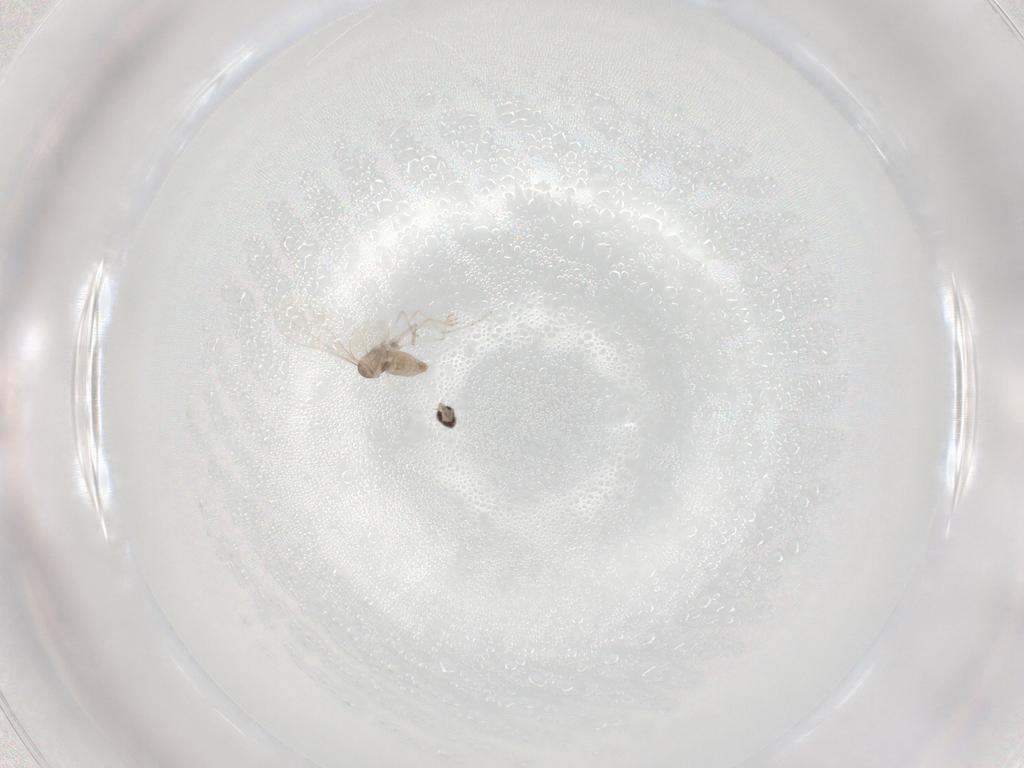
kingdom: Animalia
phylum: Arthropoda
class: Insecta
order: Diptera
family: Cecidomyiidae
